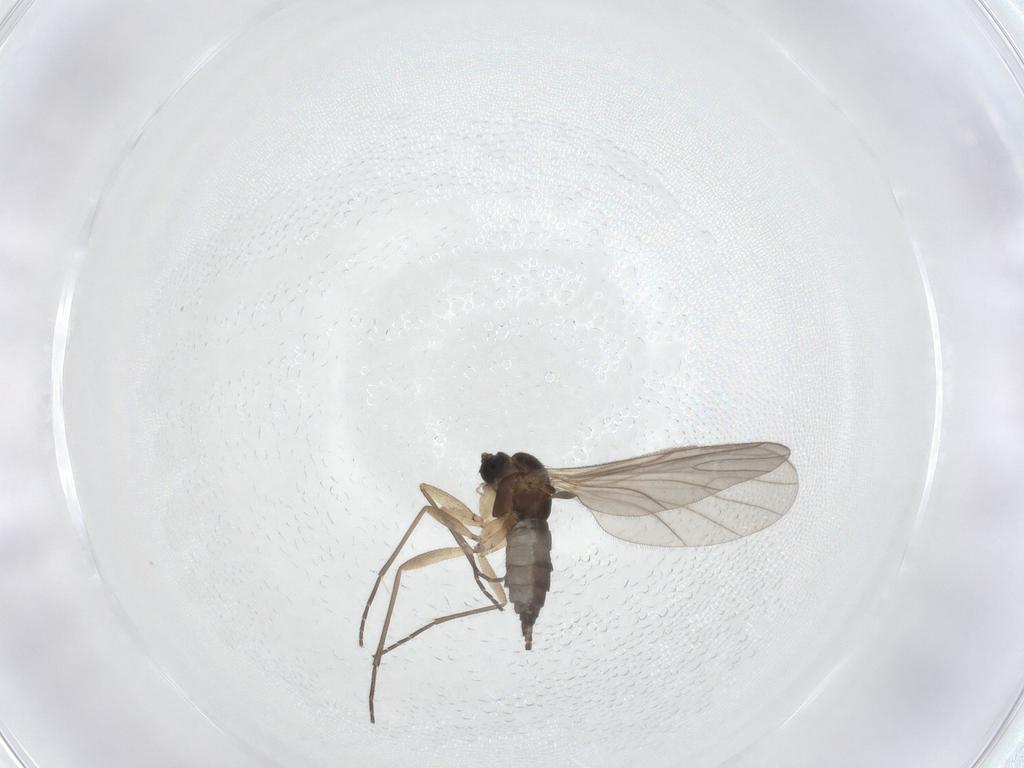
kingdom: Animalia
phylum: Arthropoda
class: Insecta
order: Diptera
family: Sciaridae
